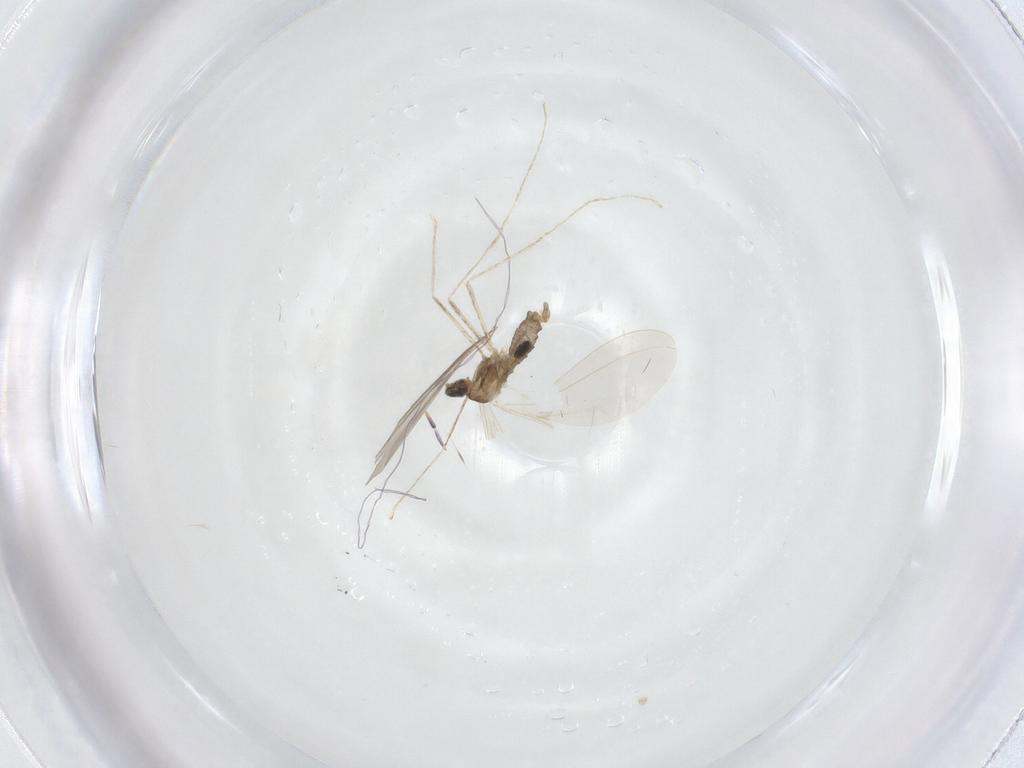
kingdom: Animalia
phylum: Arthropoda
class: Insecta
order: Diptera
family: Cecidomyiidae
